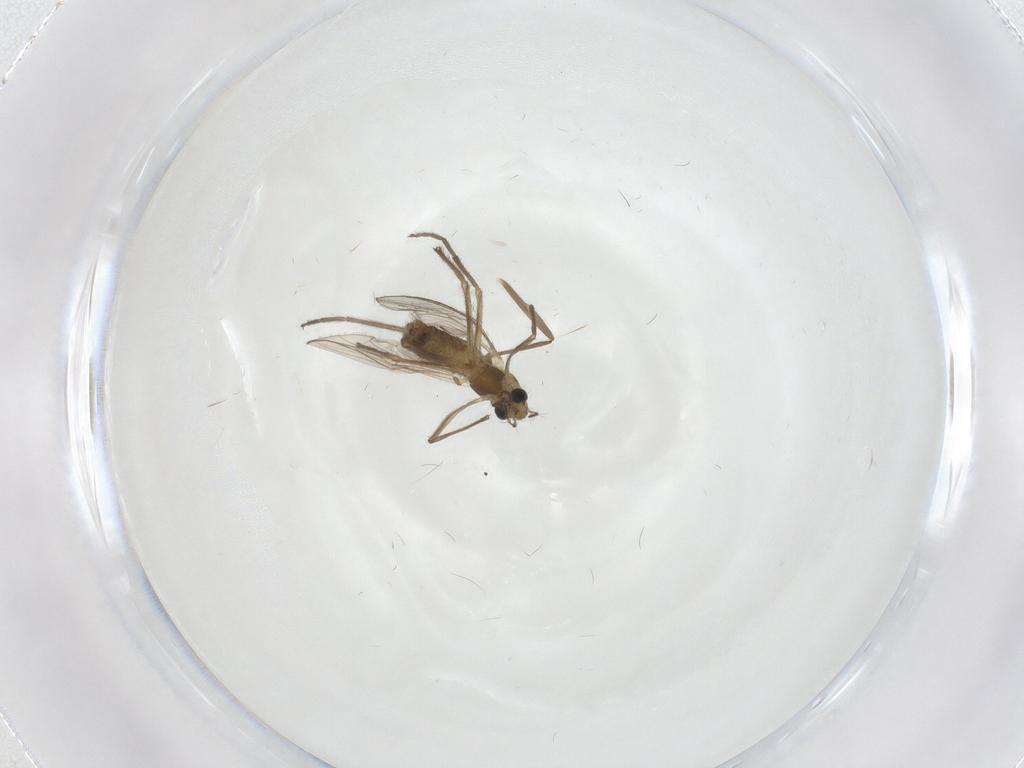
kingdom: Animalia
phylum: Arthropoda
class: Insecta
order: Diptera
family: Chironomidae
